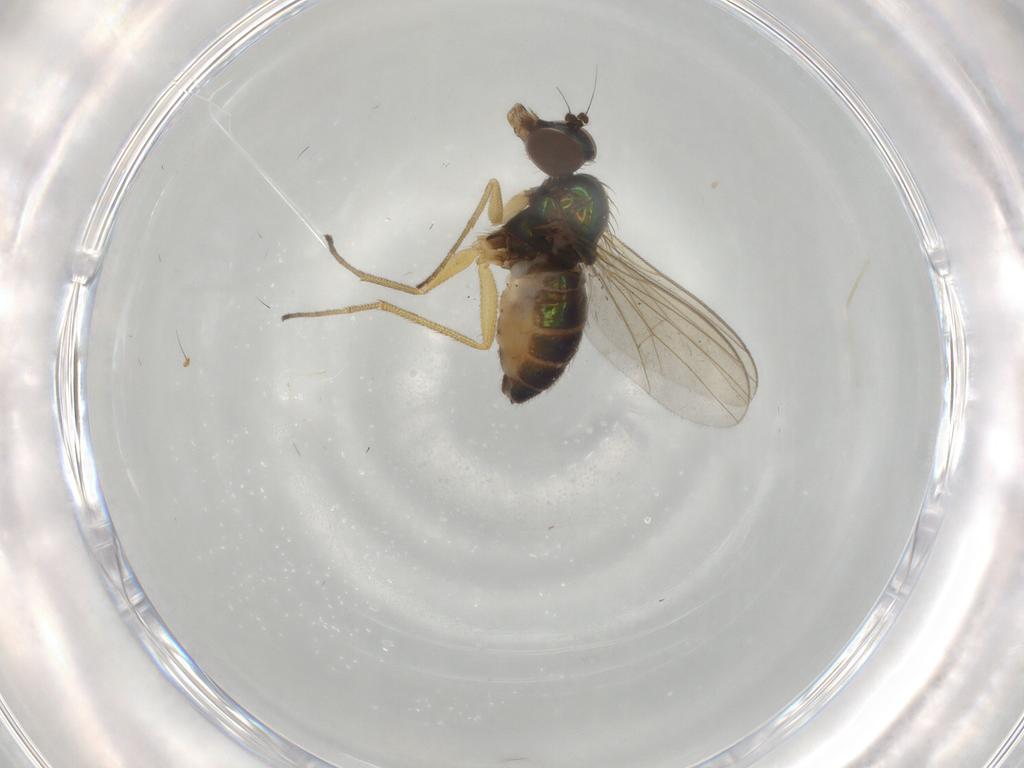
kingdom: Animalia
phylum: Arthropoda
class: Insecta
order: Diptera
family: Dolichopodidae
